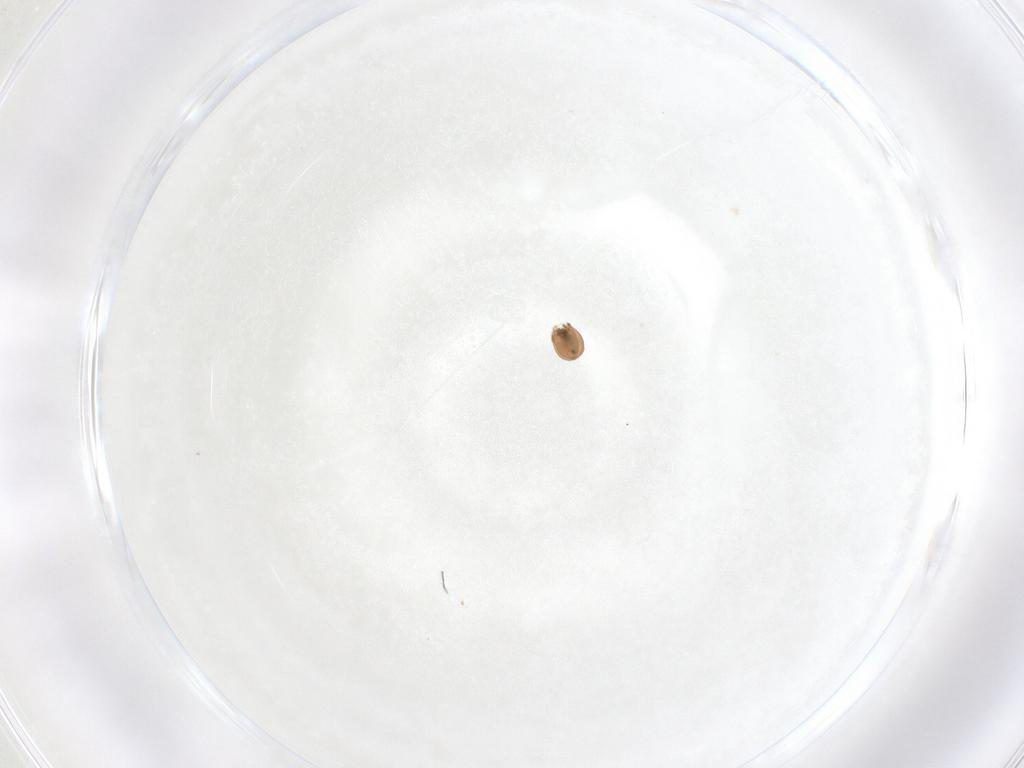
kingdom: Animalia
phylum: Arthropoda
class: Arachnida
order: Sarcoptiformes
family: Oribatulidae
